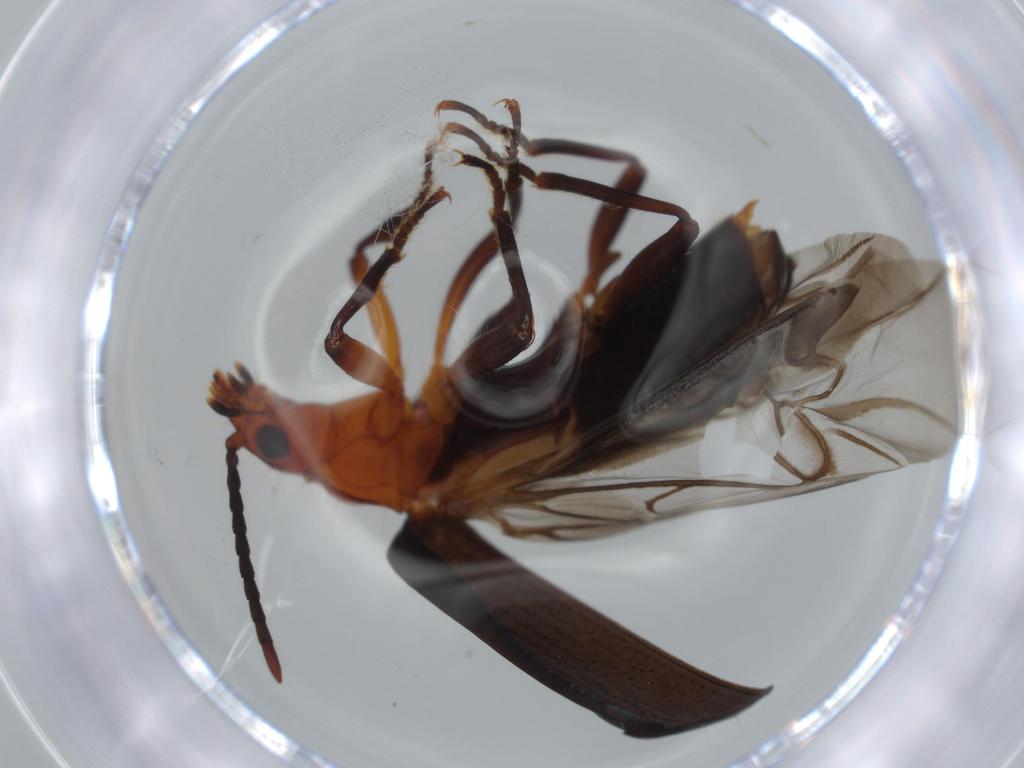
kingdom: Animalia
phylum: Arthropoda
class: Insecta
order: Coleoptera
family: Carabidae
